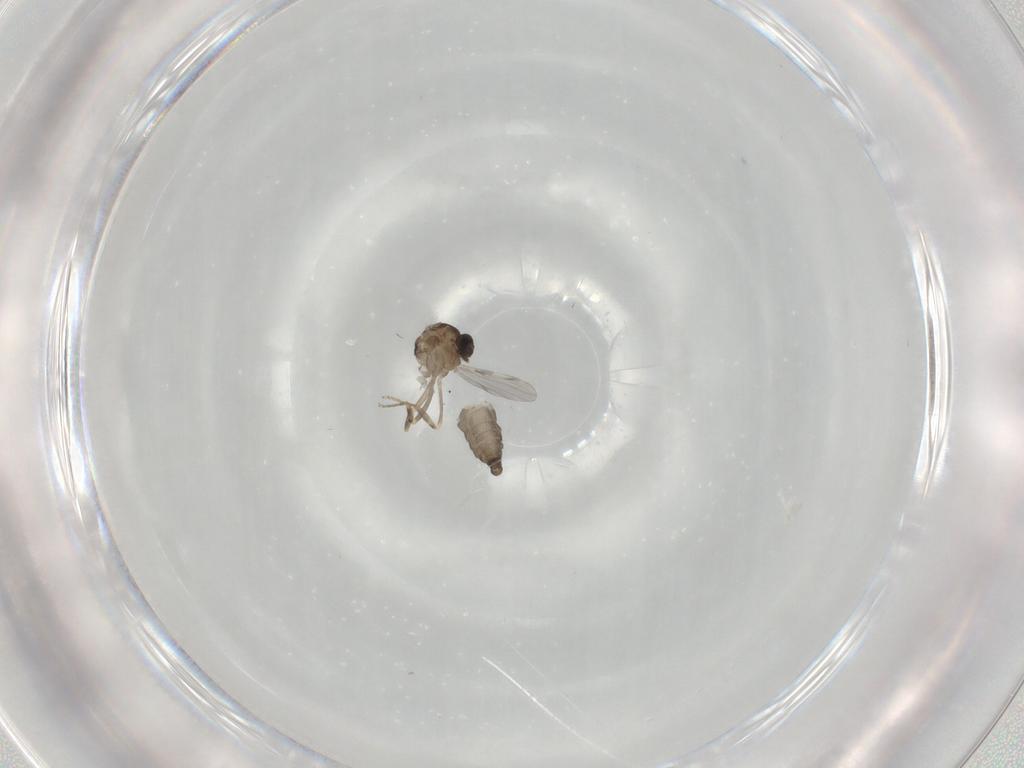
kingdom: Animalia
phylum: Arthropoda
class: Insecta
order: Diptera
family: Ceratopogonidae
